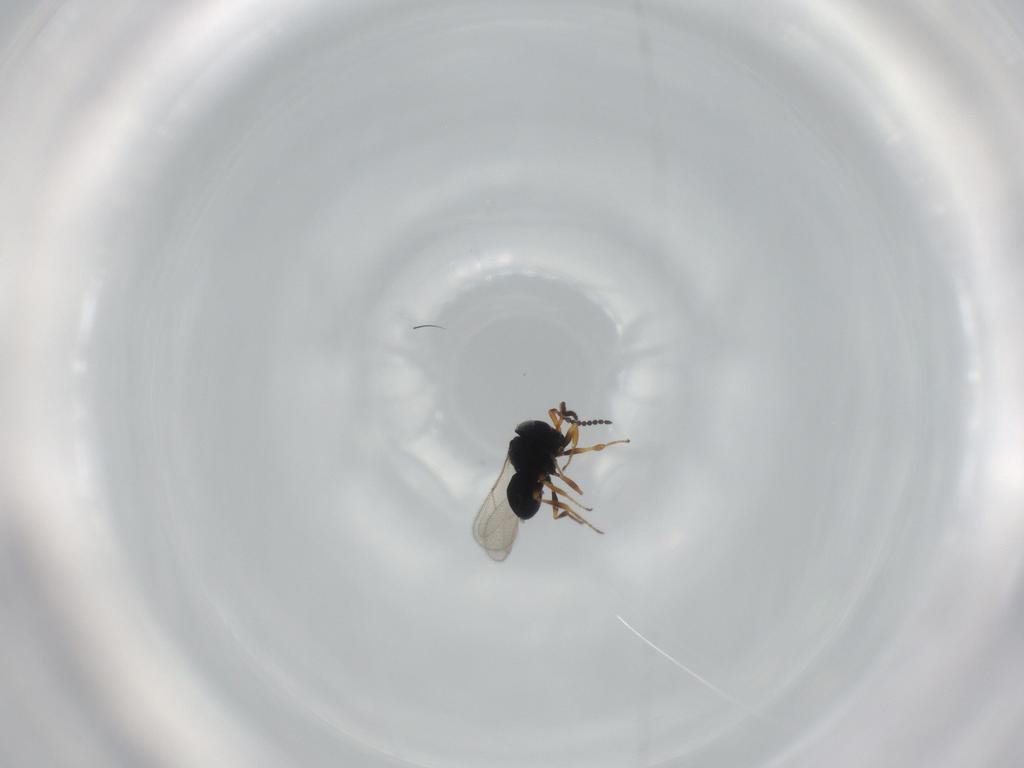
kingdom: Animalia
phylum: Arthropoda
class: Insecta
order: Hymenoptera
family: Scelionidae
